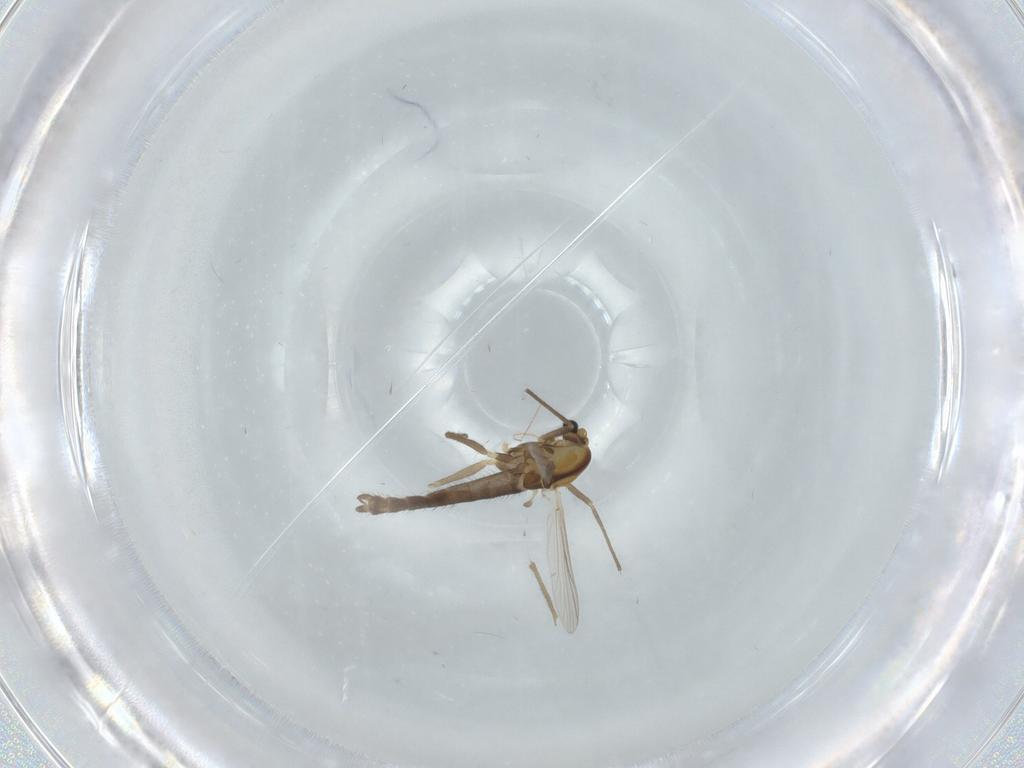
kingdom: Animalia
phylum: Arthropoda
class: Insecta
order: Diptera
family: Chironomidae
